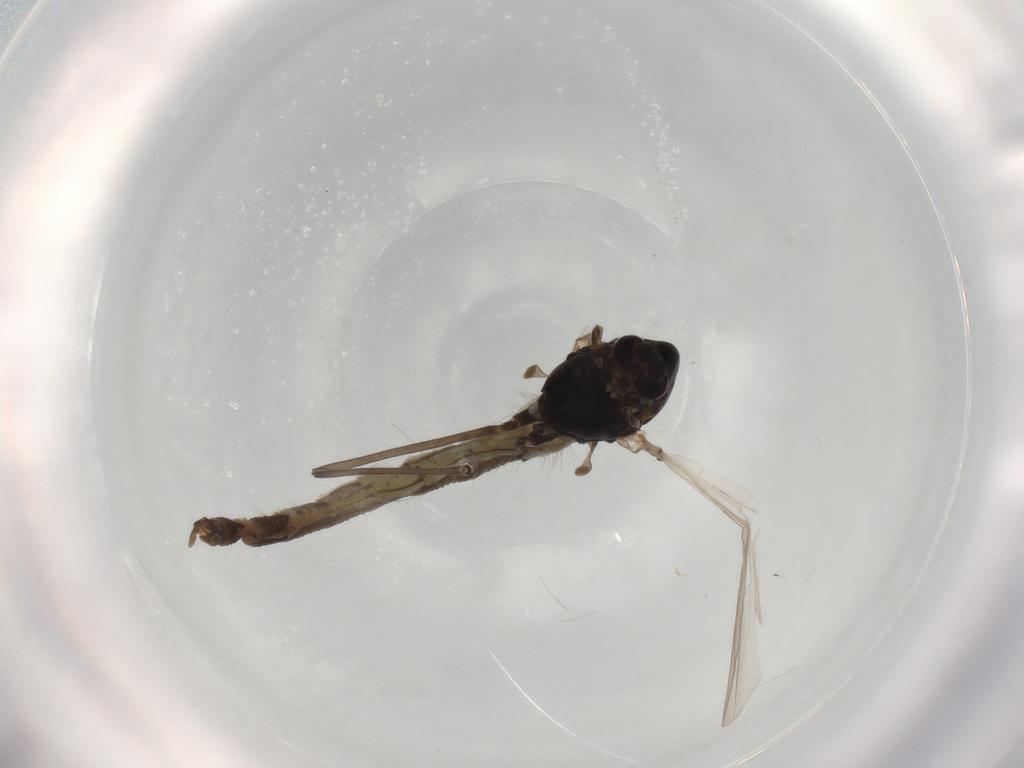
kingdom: Animalia
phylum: Arthropoda
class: Insecta
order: Diptera
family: Chironomidae
